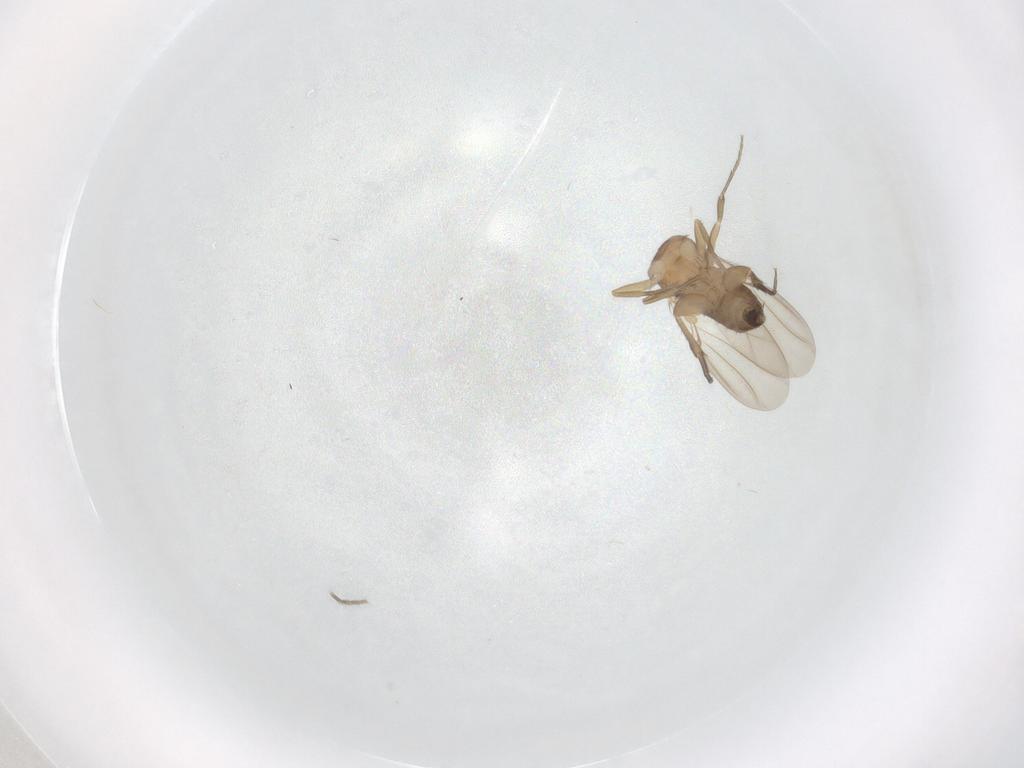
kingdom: Animalia
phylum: Arthropoda
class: Insecta
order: Diptera
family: Phoridae
